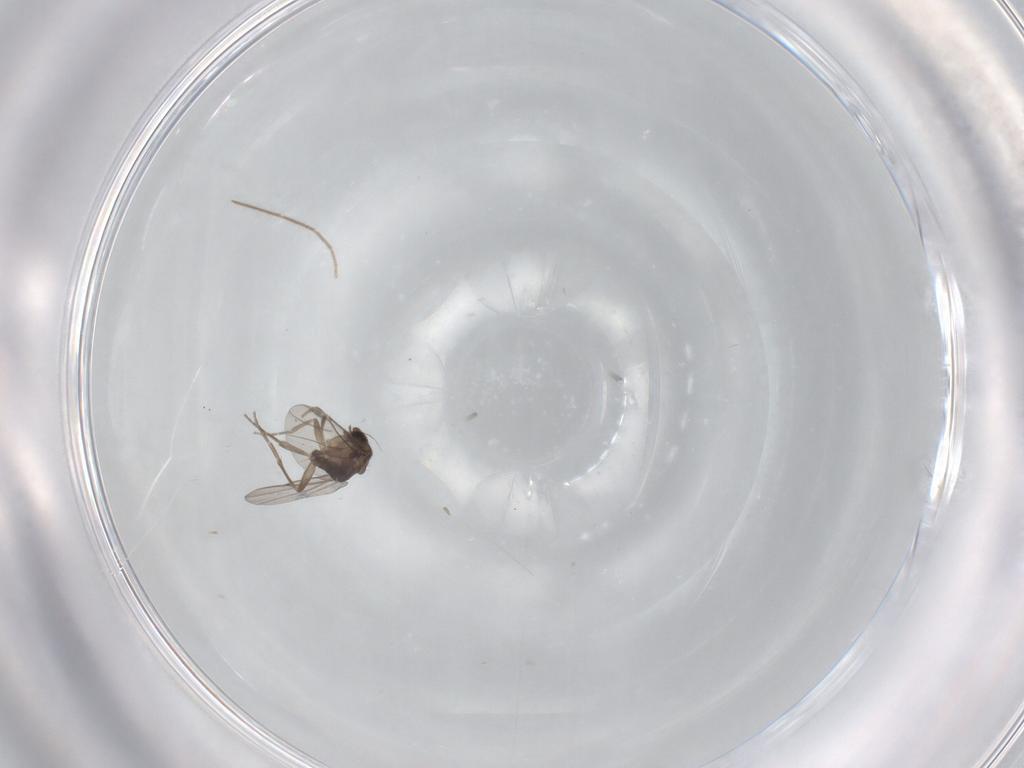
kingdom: Animalia
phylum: Arthropoda
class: Insecta
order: Diptera
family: Chironomidae
